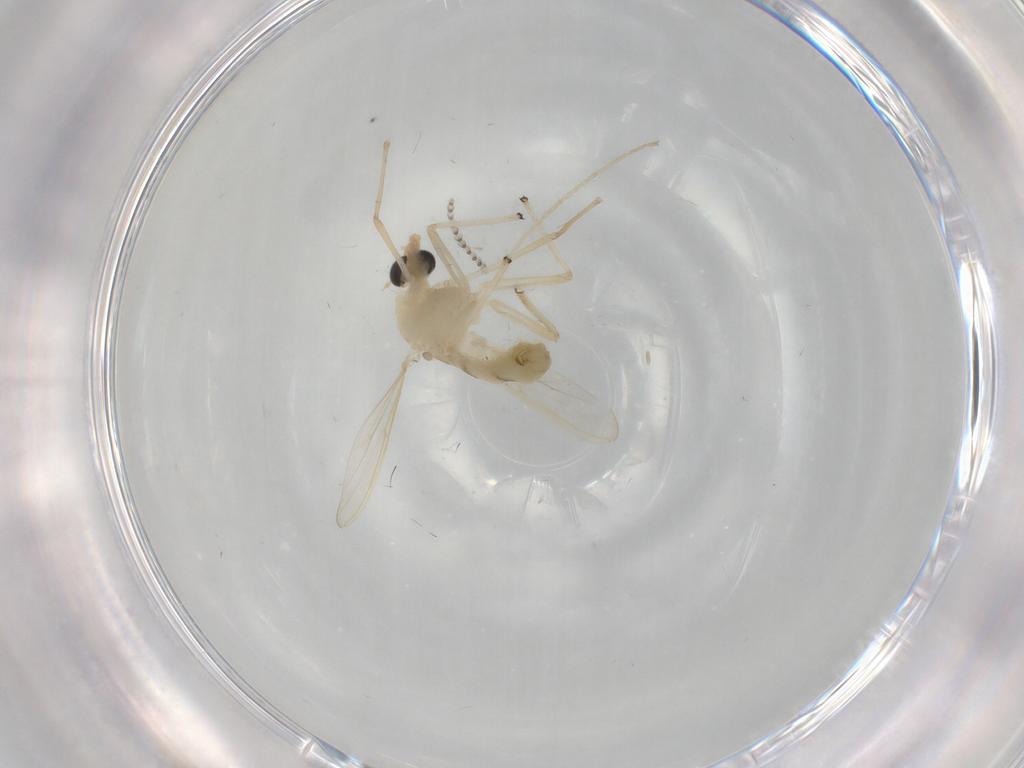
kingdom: Animalia
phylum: Arthropoda
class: Insecta
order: Diptera
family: Chironomidae
